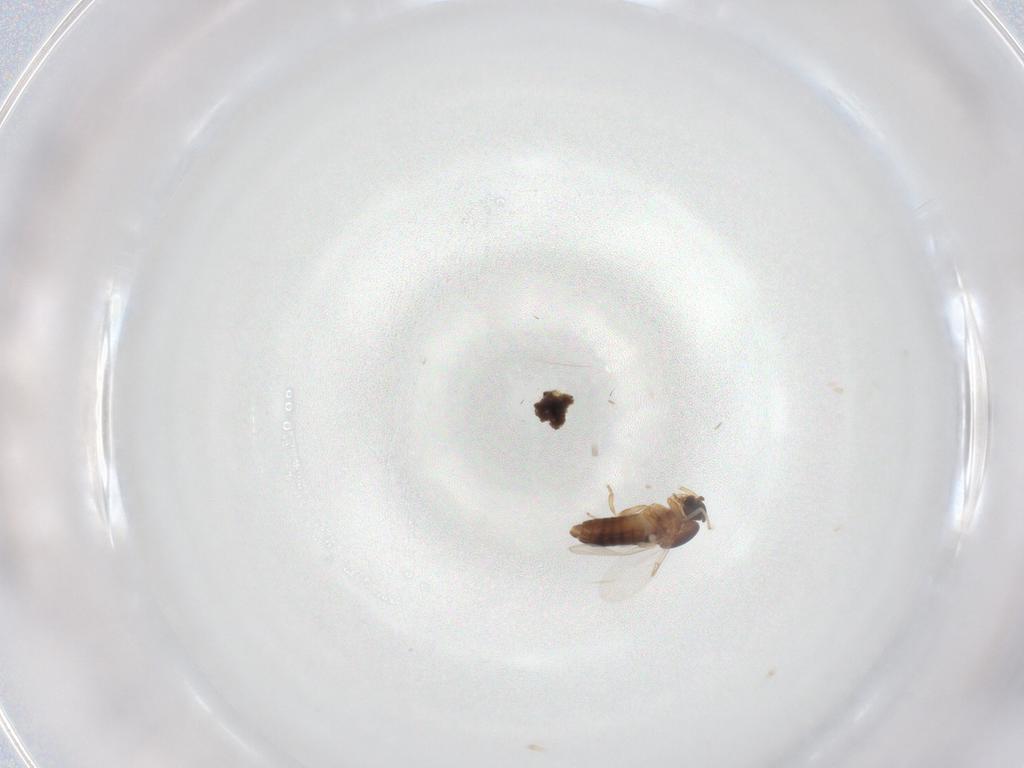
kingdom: Animalia
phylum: Arthropoda
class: Insecta
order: Diptera
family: Scatopsidae
